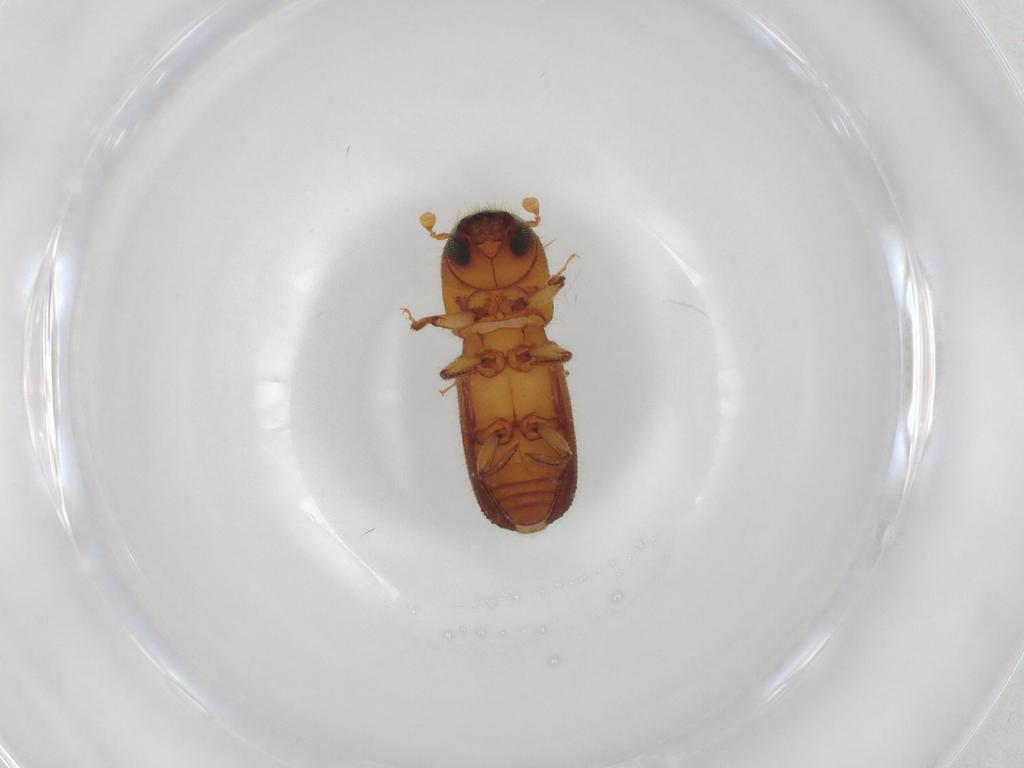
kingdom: Animalia
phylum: Arthropoda
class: Insecta
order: Coleoptera
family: Curculionidae
